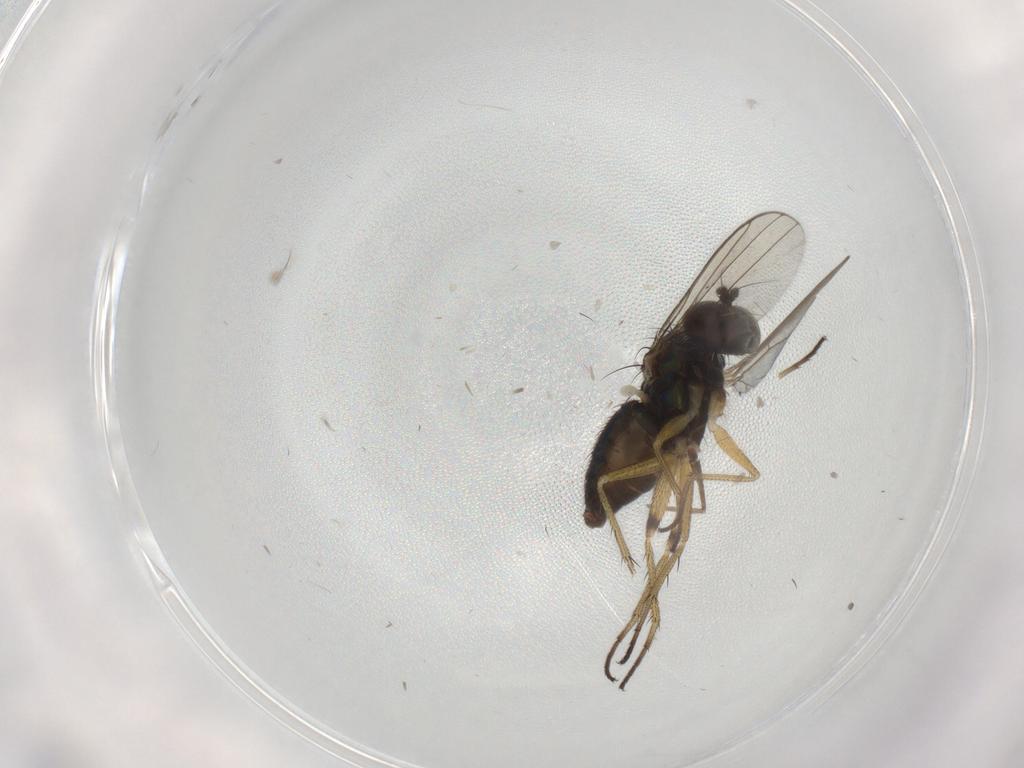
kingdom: Animalia
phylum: Arthropoda
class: Insecta
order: Diptera
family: Dolichopodidae
